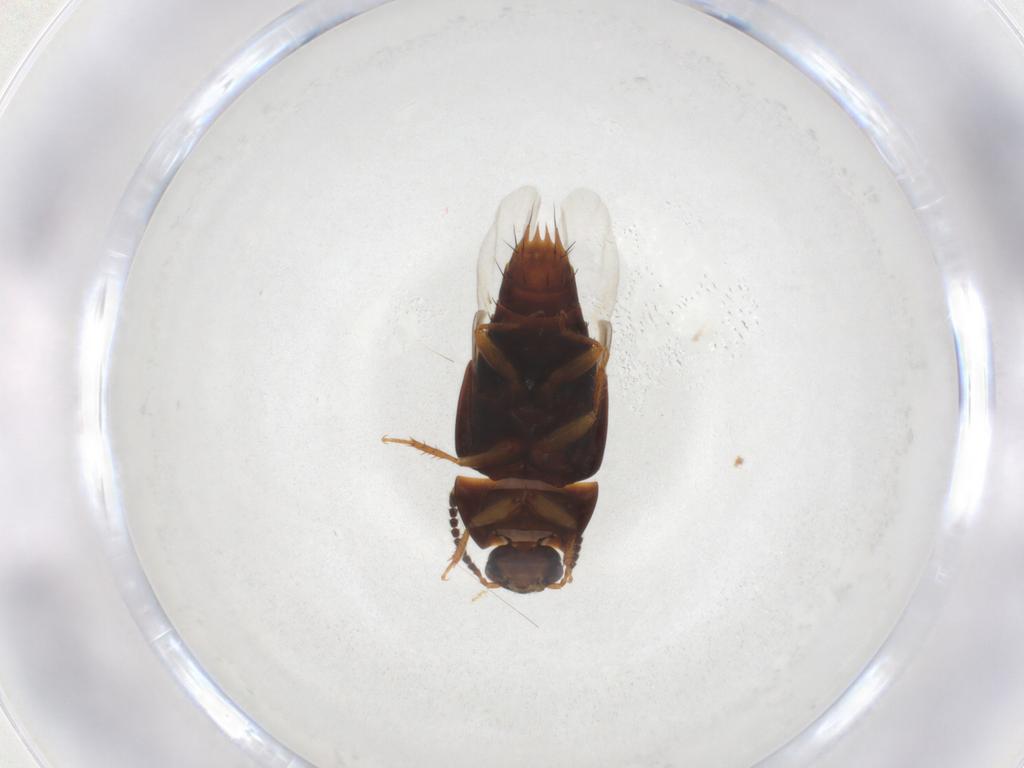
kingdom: Animalia
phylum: Arthropoda
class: Insecta
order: Coleoptera
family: Staphylinidae
